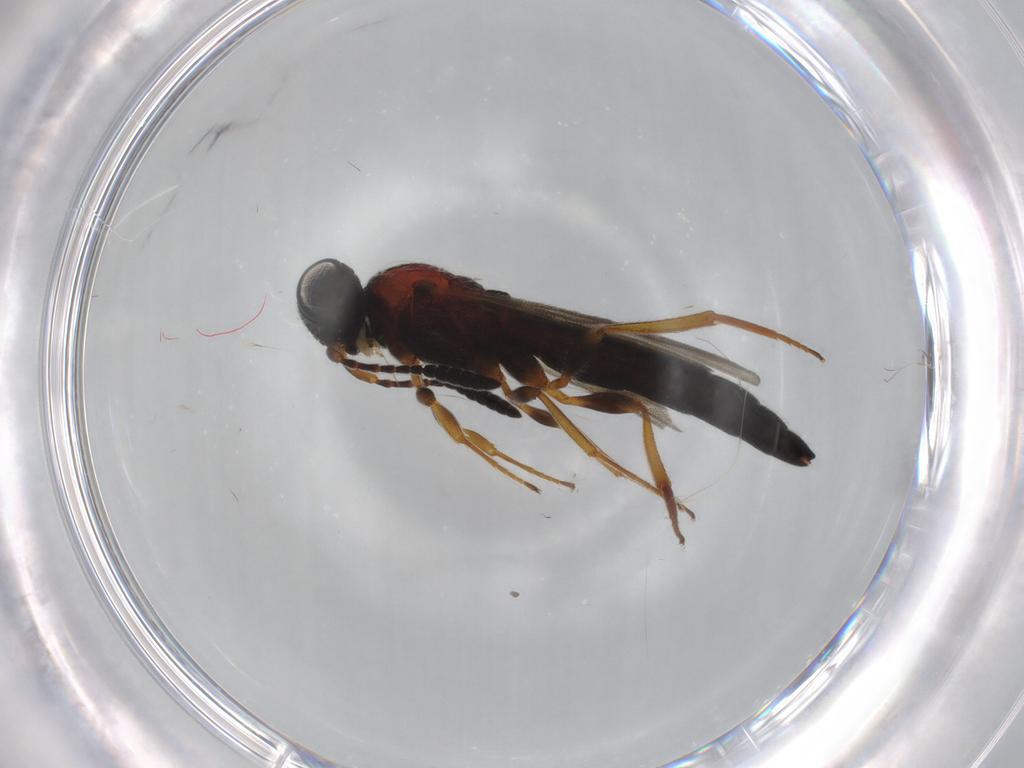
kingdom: Animalia
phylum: Arthropoda
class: Insecta
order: Hymenoptera
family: Scelionidae
